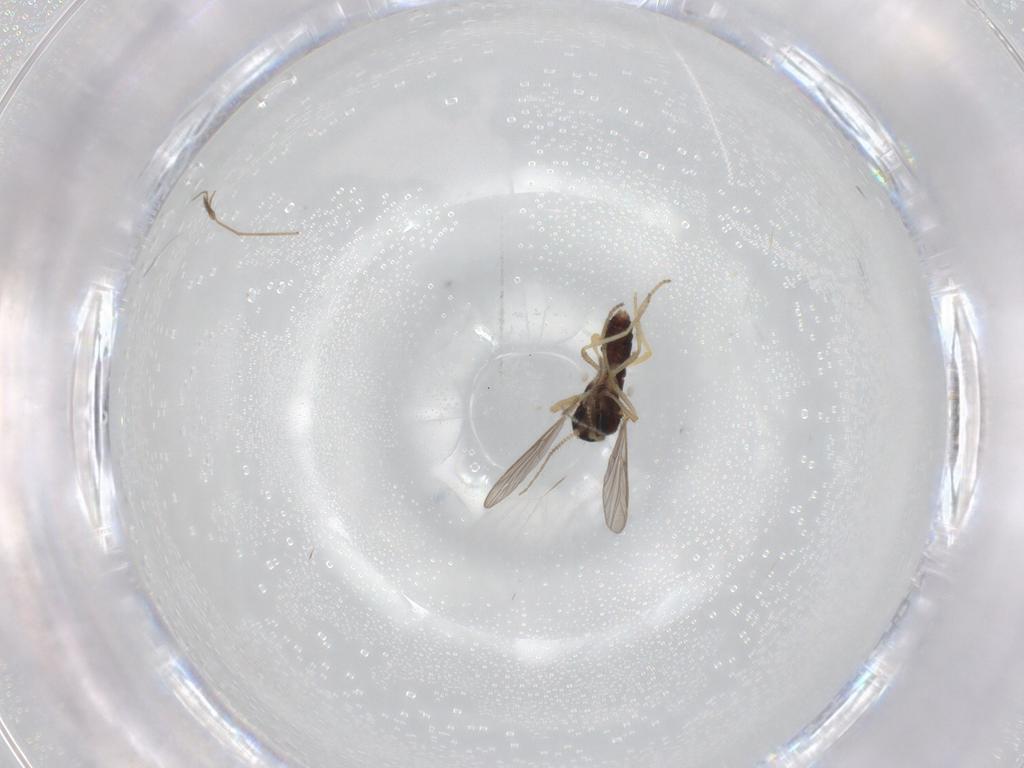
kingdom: Animalia
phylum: Arthropoda
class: Insecta
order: Diptera
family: Ceratopogonidae
